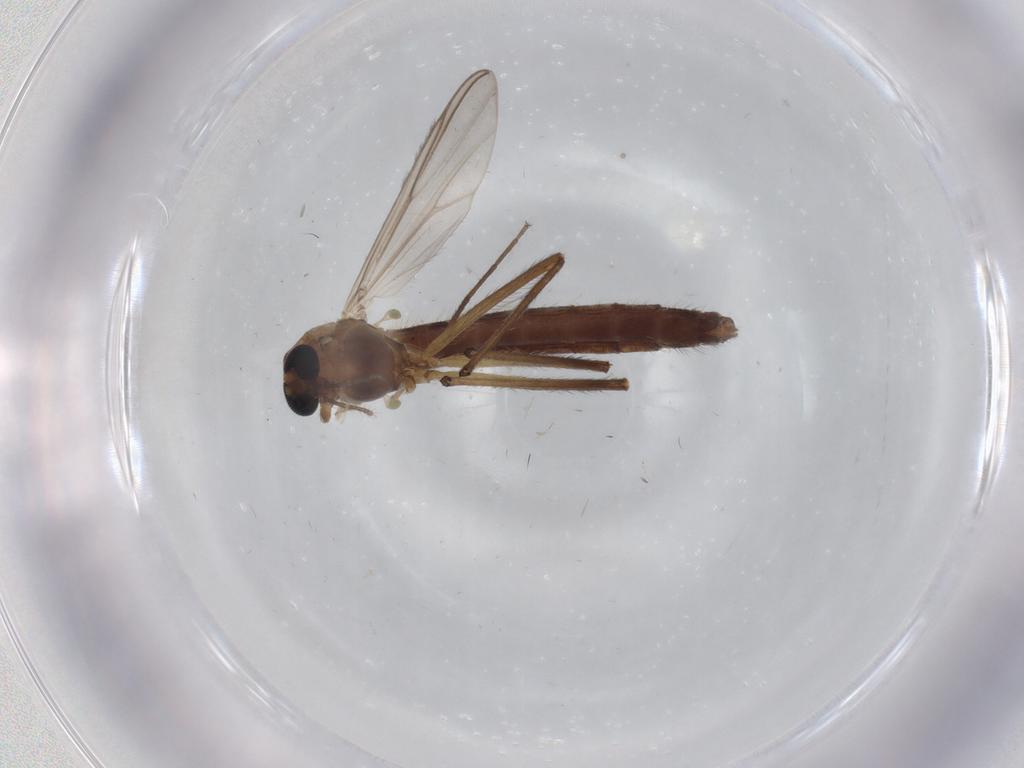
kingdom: Animalia
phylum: Arthropoda
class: Insecta
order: Diptera
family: Chironomidae
